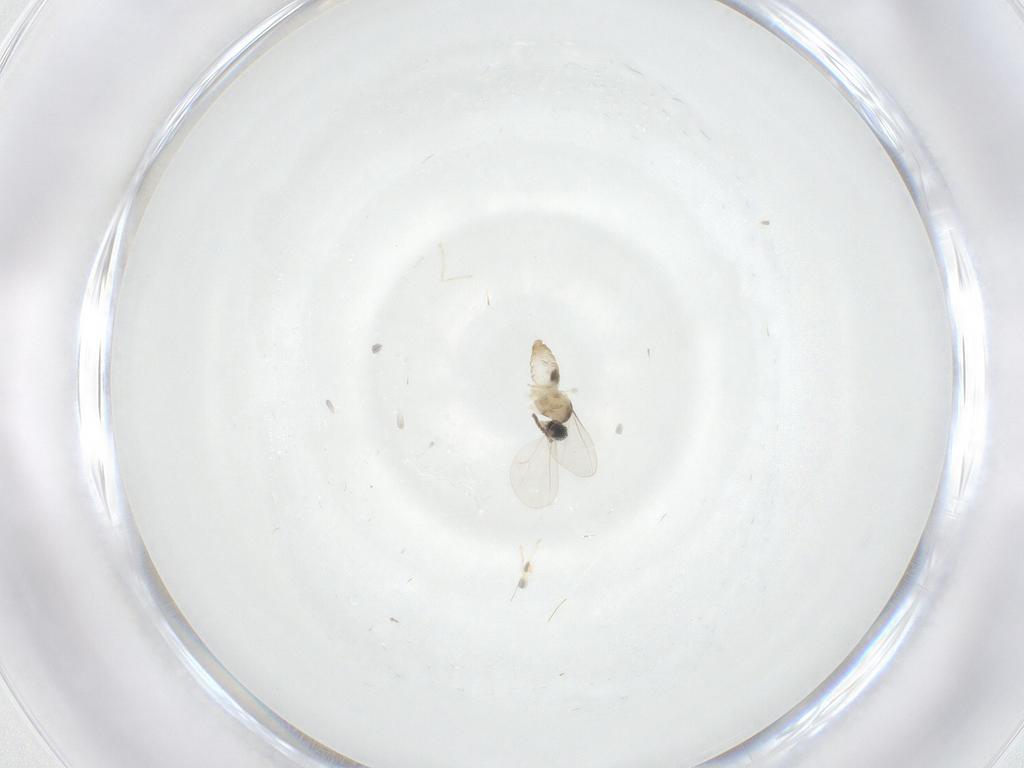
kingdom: Animalia
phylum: Arthropoda
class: Insecta
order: Diptera
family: Cecidomyiidae
